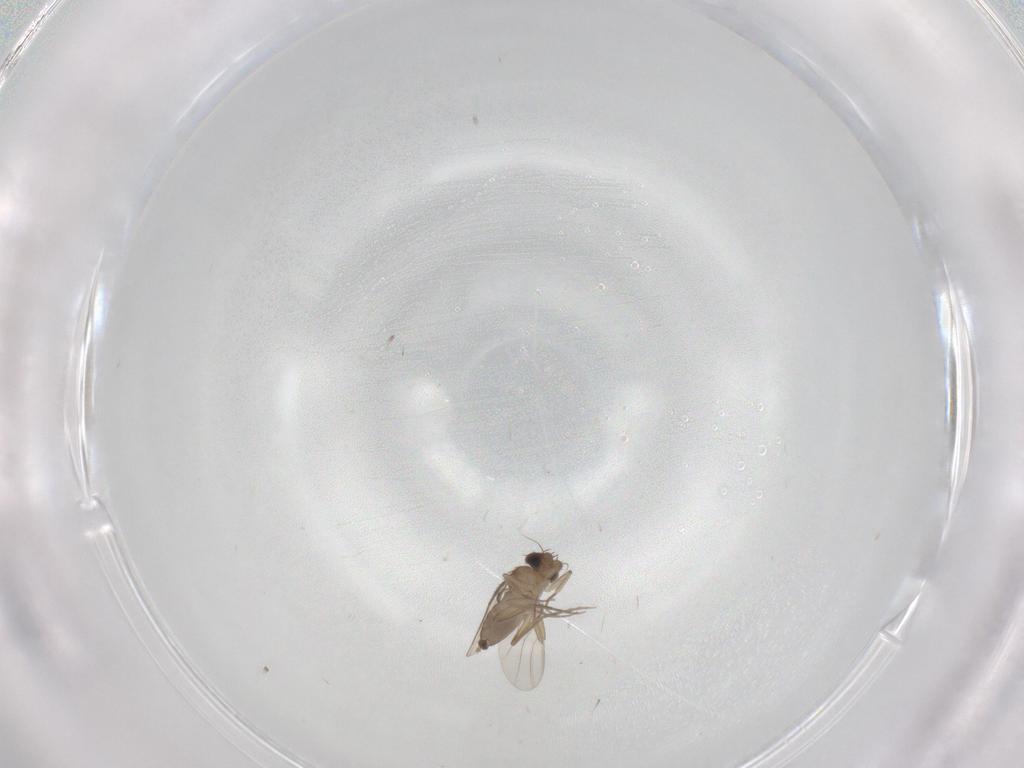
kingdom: Animalia
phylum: Arthropoda
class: Insecta
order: Diptera
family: Phoridae
